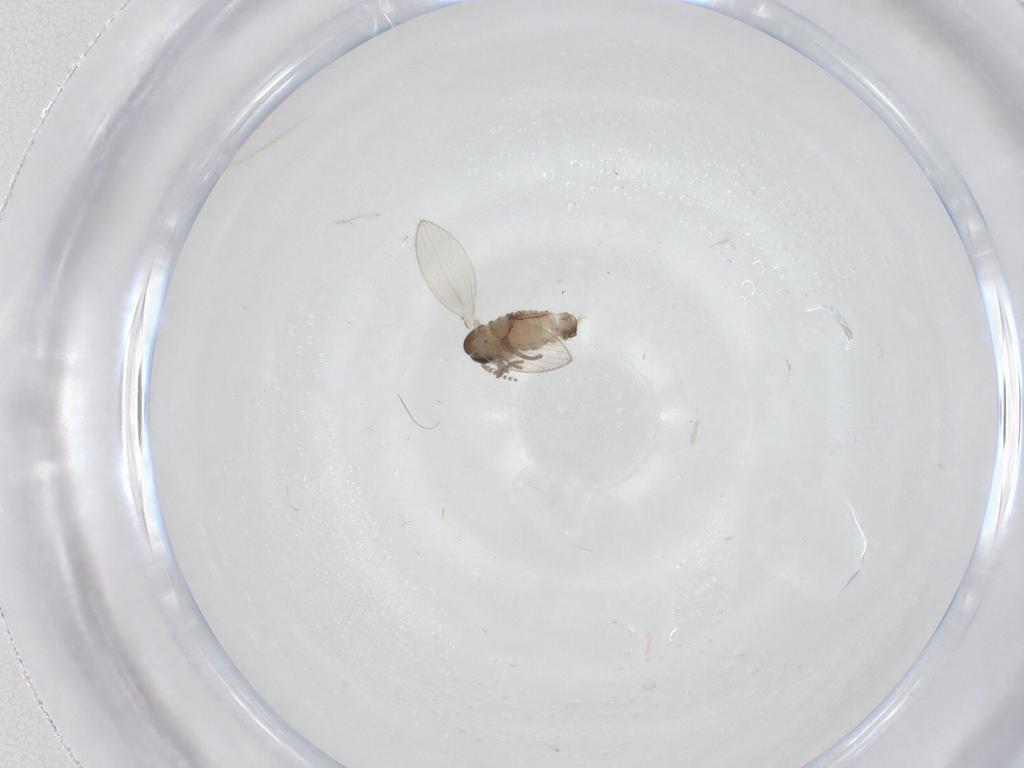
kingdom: Animalia
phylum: Arthropoda
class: Insecta
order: Diptera
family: Psychodidae
